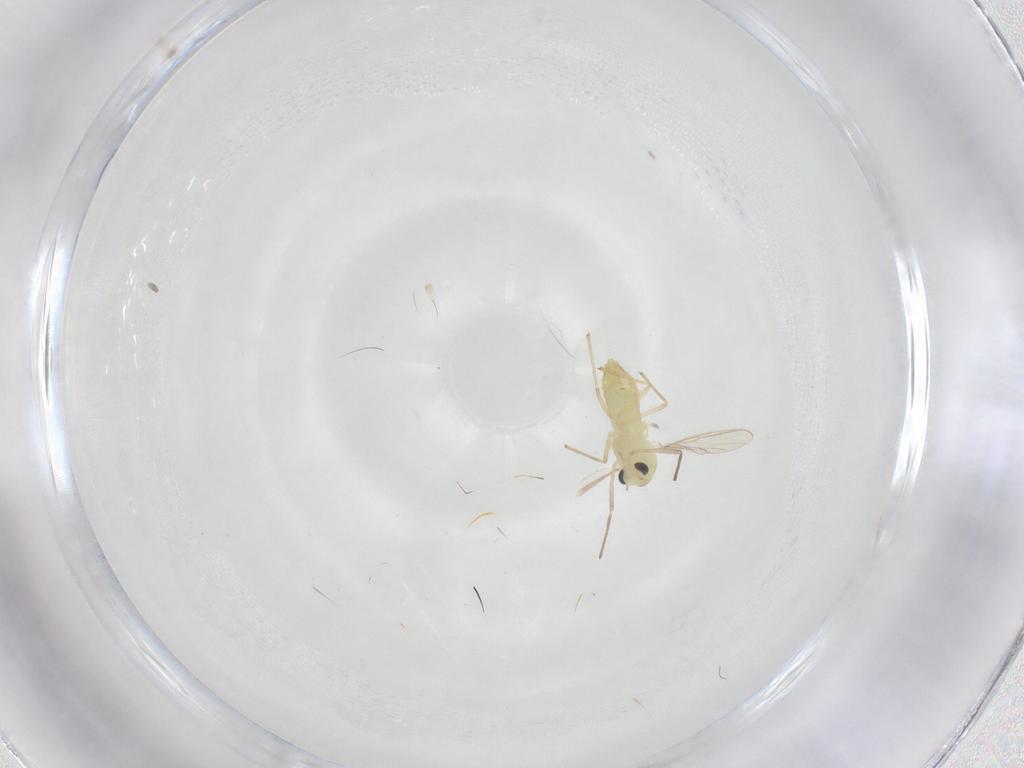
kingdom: Animalia
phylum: Arthropoda
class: Insecta
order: Diptera
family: Chironomidae
